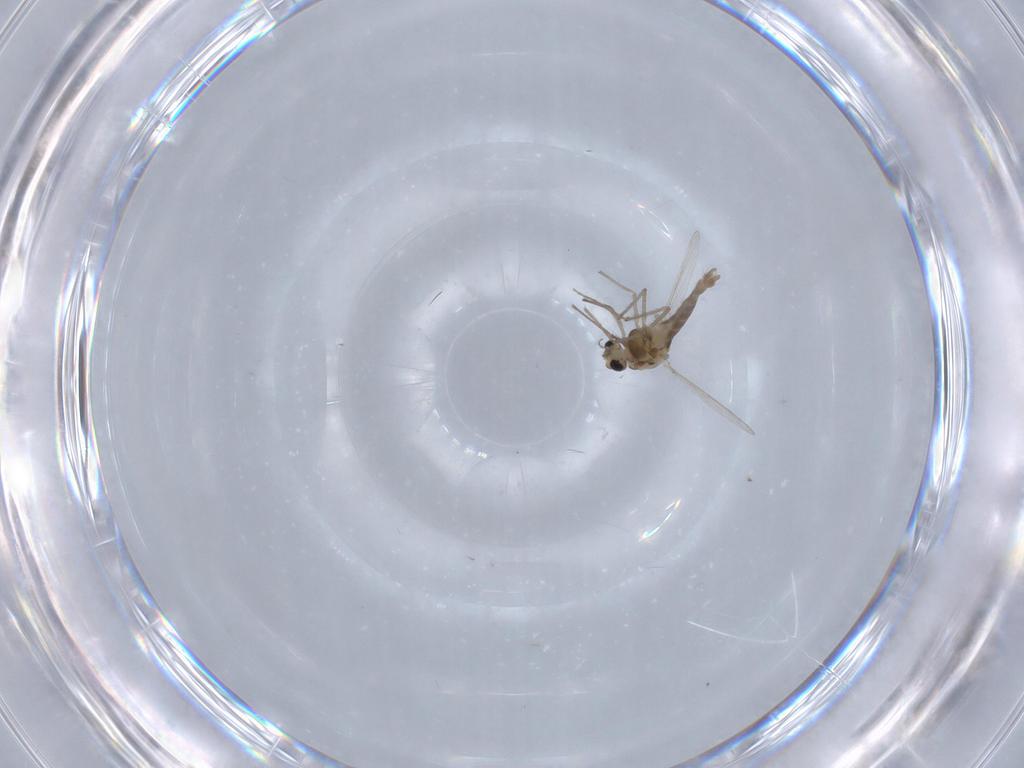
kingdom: Animalia
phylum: Arthropoda
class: Insecta
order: Diptera
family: Chironomidae
